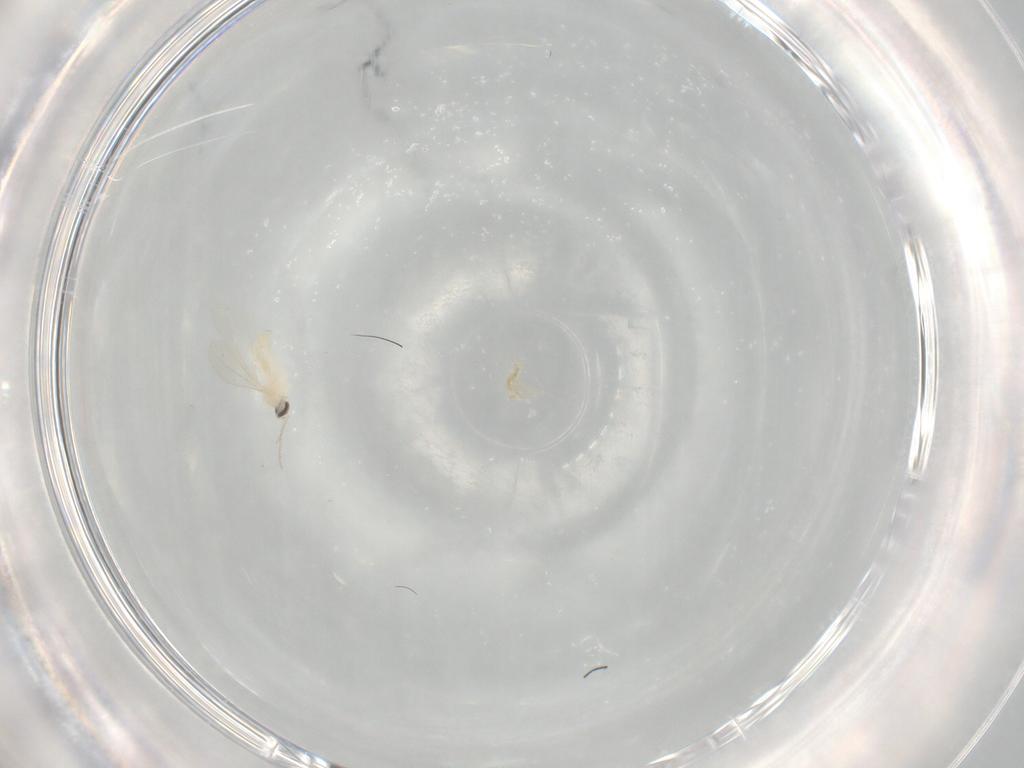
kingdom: Animalia
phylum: Arthropoda
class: Insecta
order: Diptera
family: Cecidomyiidae
